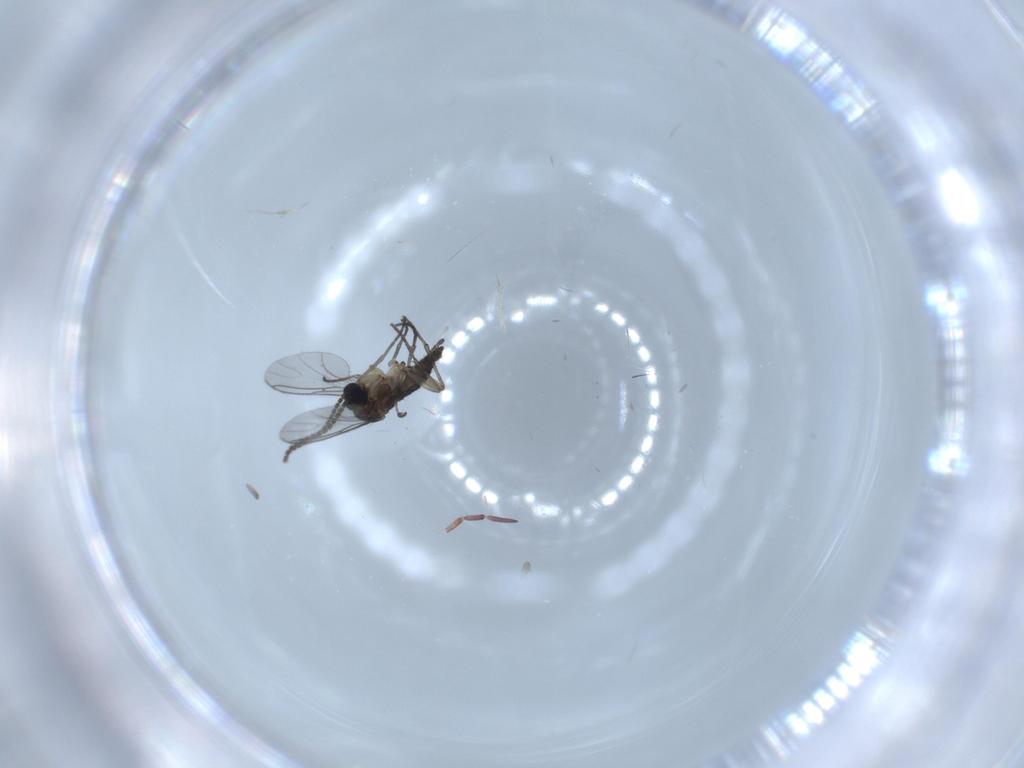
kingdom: Animalia
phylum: Arthropoda
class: Insecta
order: Diptera
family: Sciaridae
